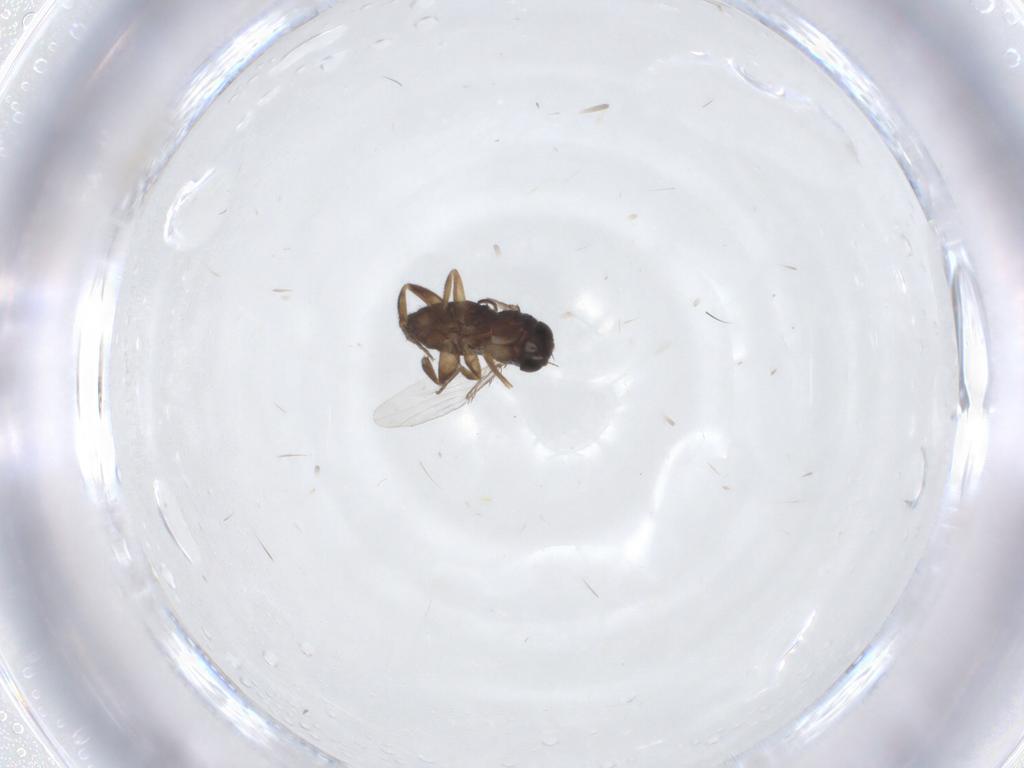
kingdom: Animalia
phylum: Arthropoda
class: Insecta
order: Diptera
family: Phoridae
